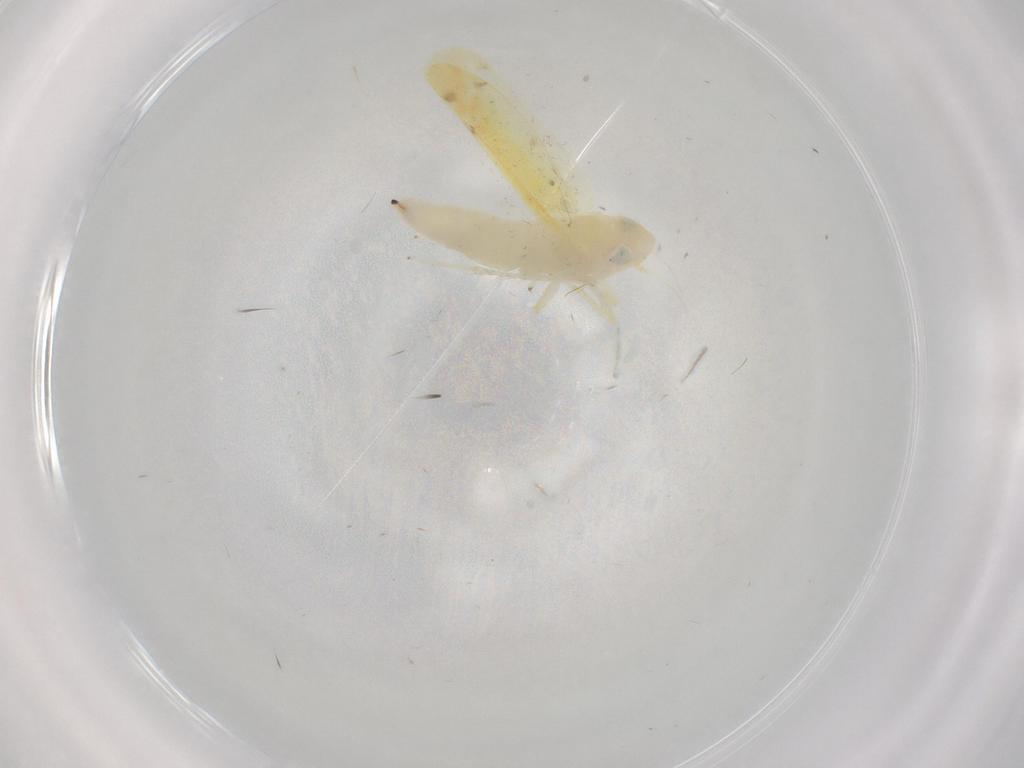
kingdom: Animalia
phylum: Arthropoda
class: Insecta
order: Hemiptera
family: Cicadellidae
